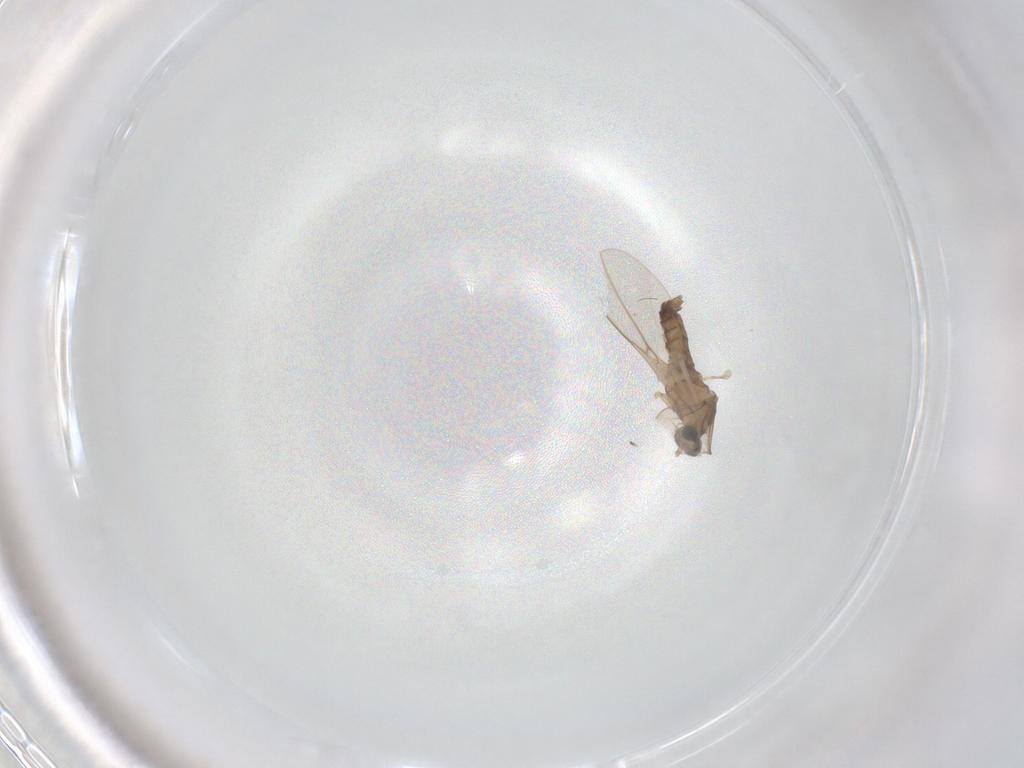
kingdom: Animalia
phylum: Arthropoda
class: Insecta
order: Diptera
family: Cecidomyiidae
